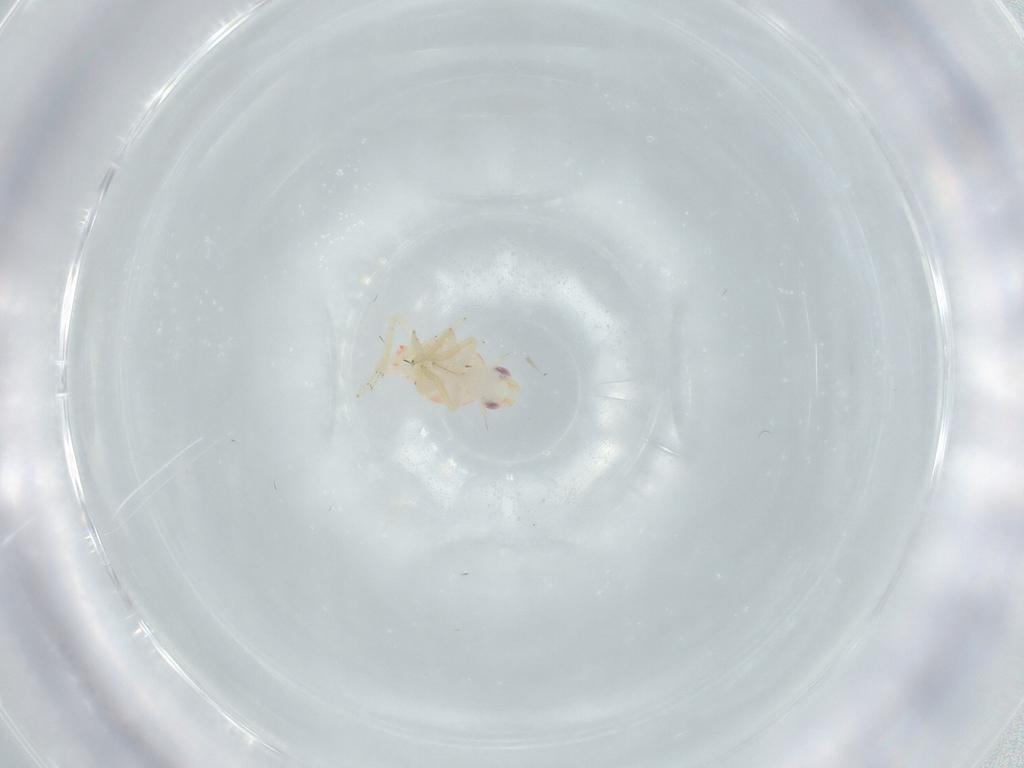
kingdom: Animalia
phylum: Arthropoda
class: Insecta
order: Hemiptera
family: Tropiduchidae
